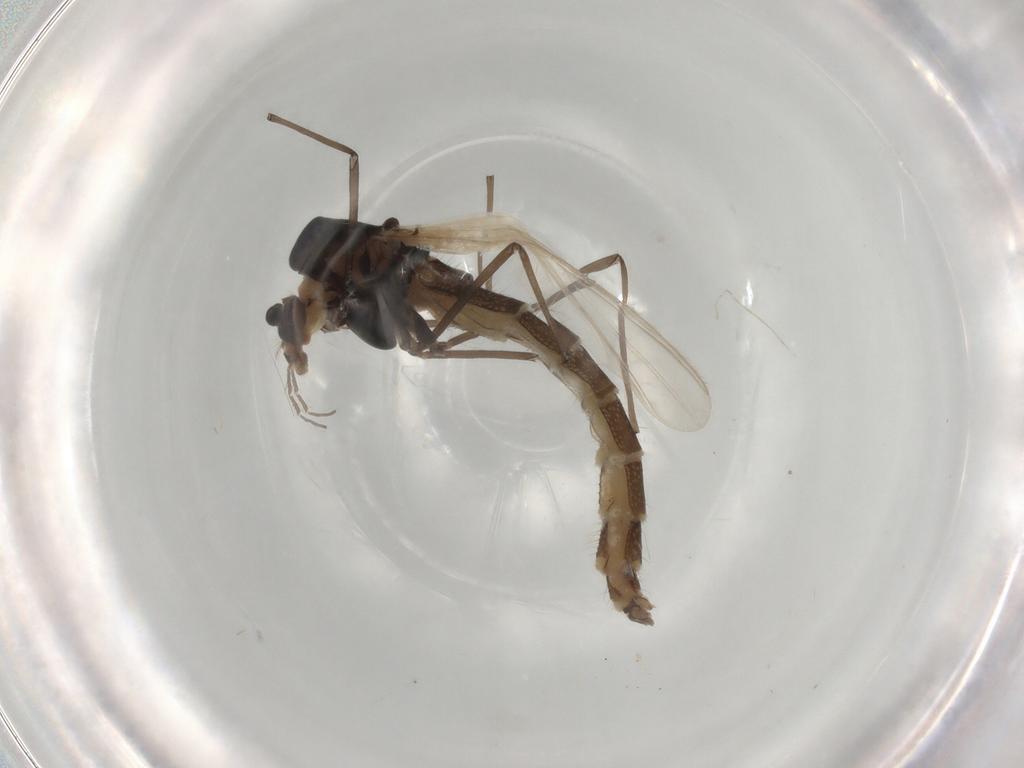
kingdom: Animalia
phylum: Arthropoda
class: Insecta
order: Diptera
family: Chironomidae
